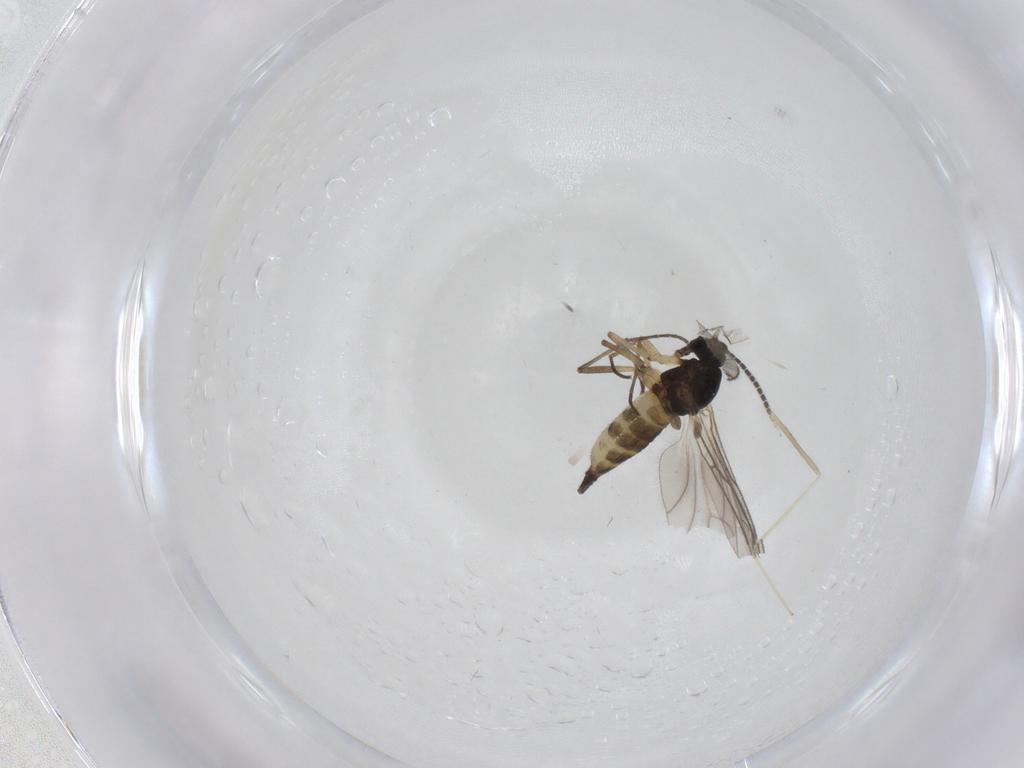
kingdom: Animalia
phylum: Arthropoda
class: Insecta
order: Diptera
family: Sciaridae
